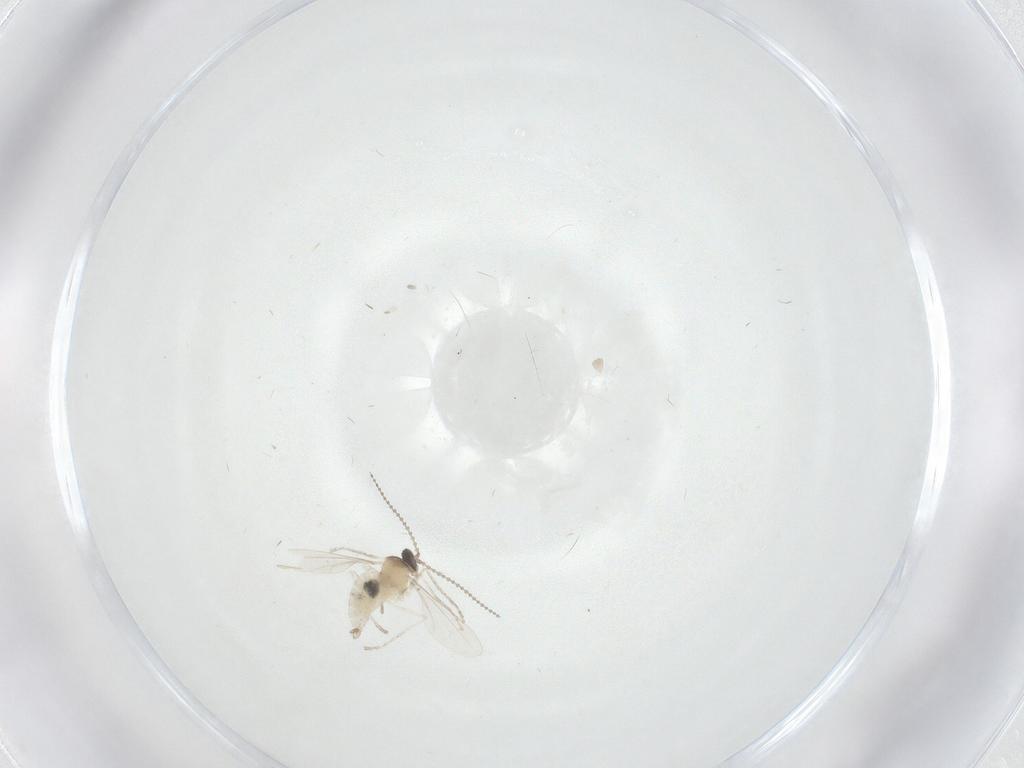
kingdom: Animalia
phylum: Arthropoda
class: Insecta
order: Diptera
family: Cecidomyiidae
